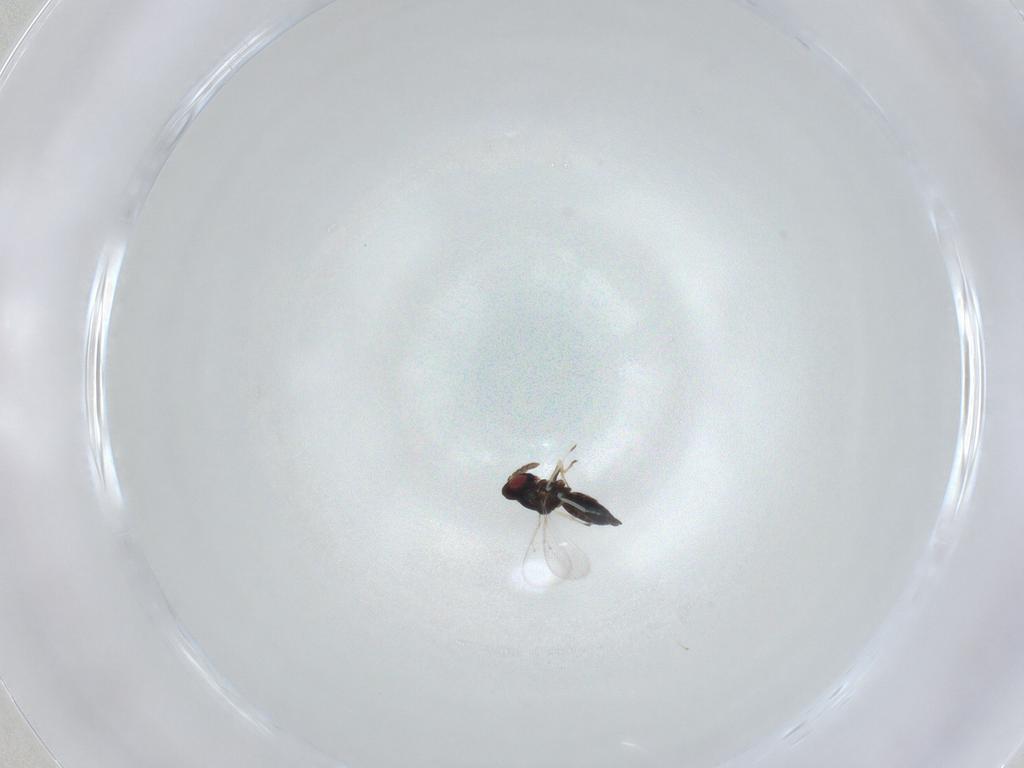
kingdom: Animalia
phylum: Arthropoda
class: Insecta
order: Hymenoptera
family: Eulophidae
